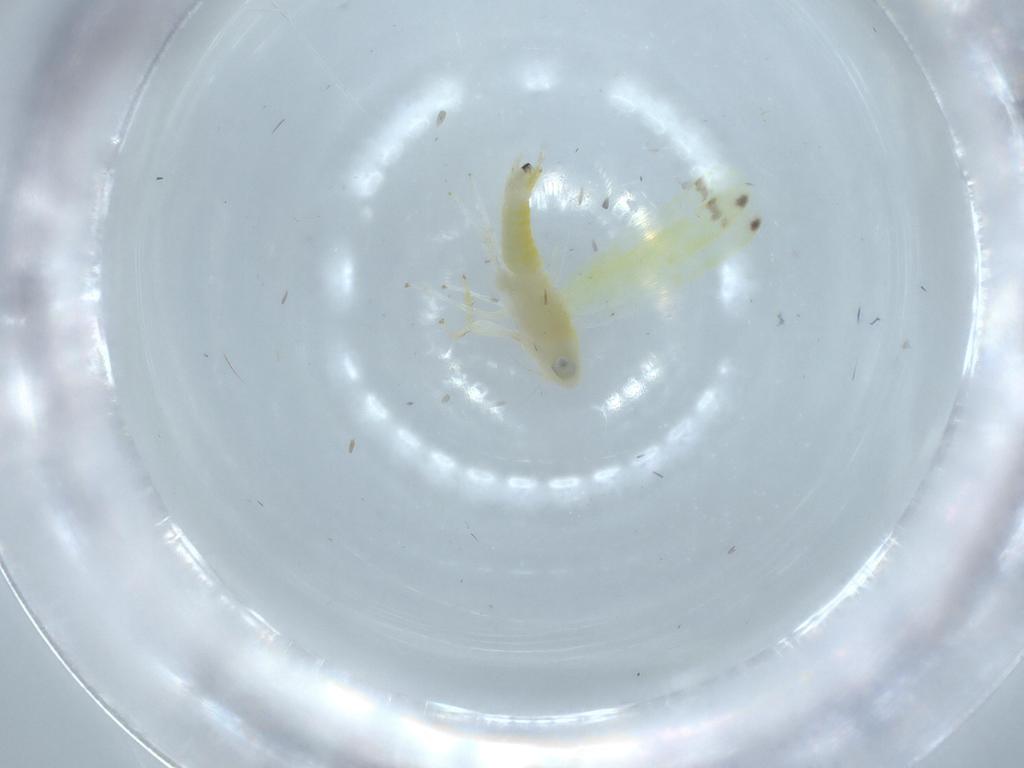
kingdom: Animalia
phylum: Arthropoda
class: Insecta
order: Hemiptera
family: Cicadellidae
